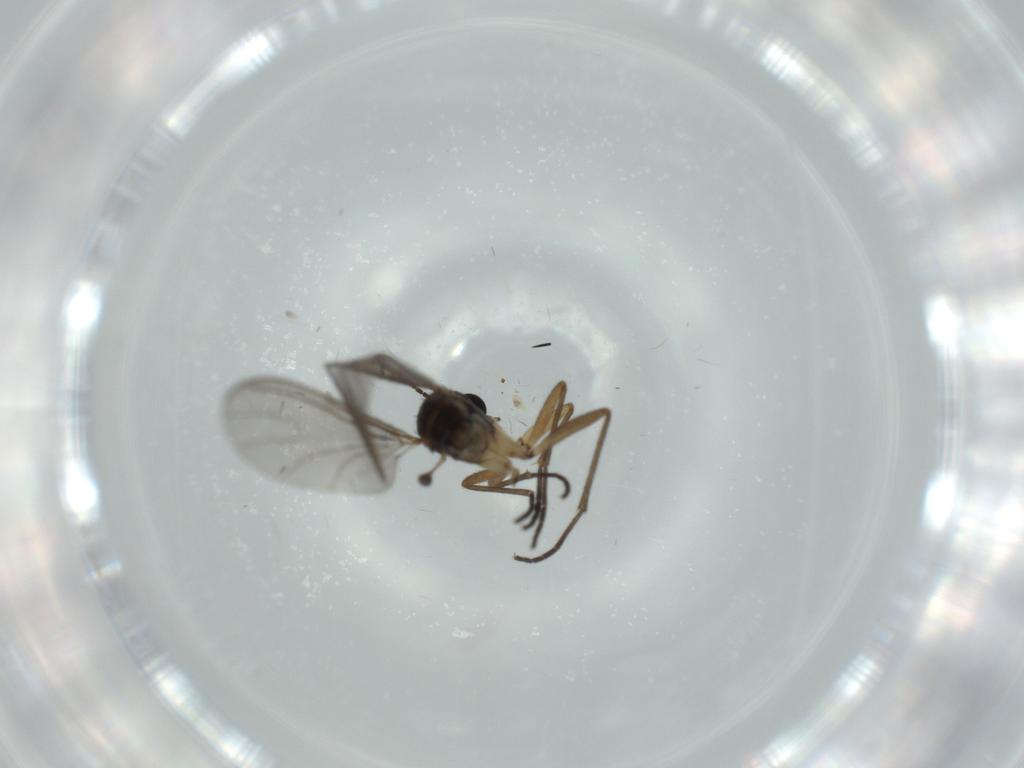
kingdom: Animalia
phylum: Arthropoda
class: Insecta
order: Diptera
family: Sciaridae
